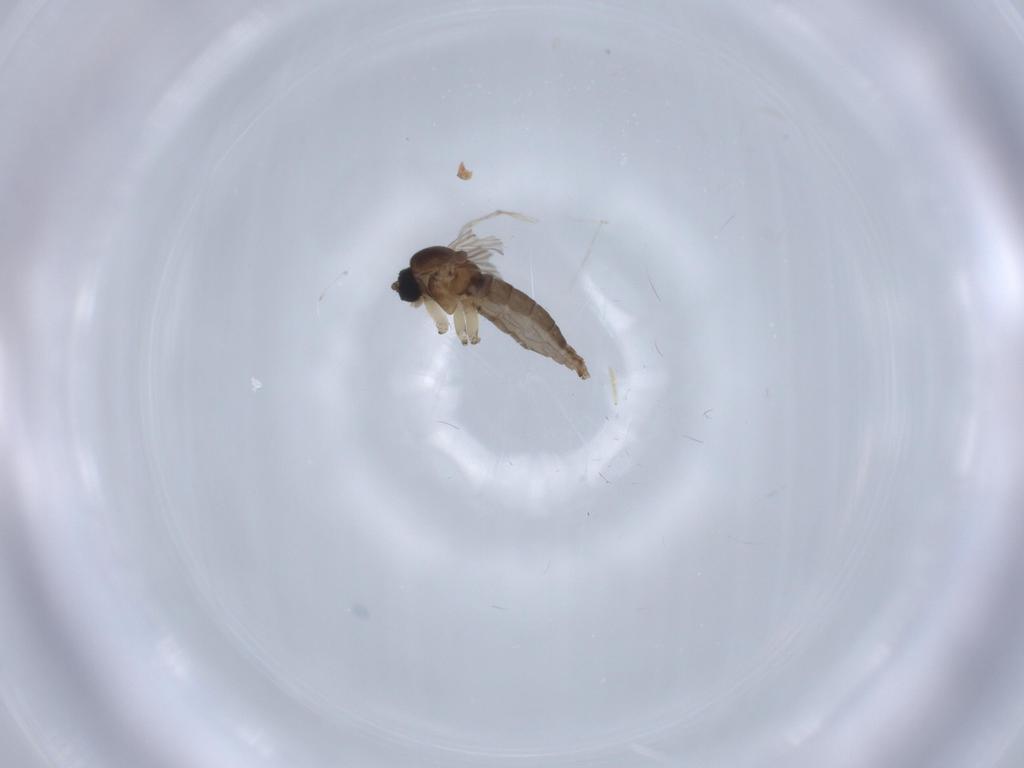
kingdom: Animalia
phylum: Arthropoda
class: Insecta
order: Diptera
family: Sciaridae
